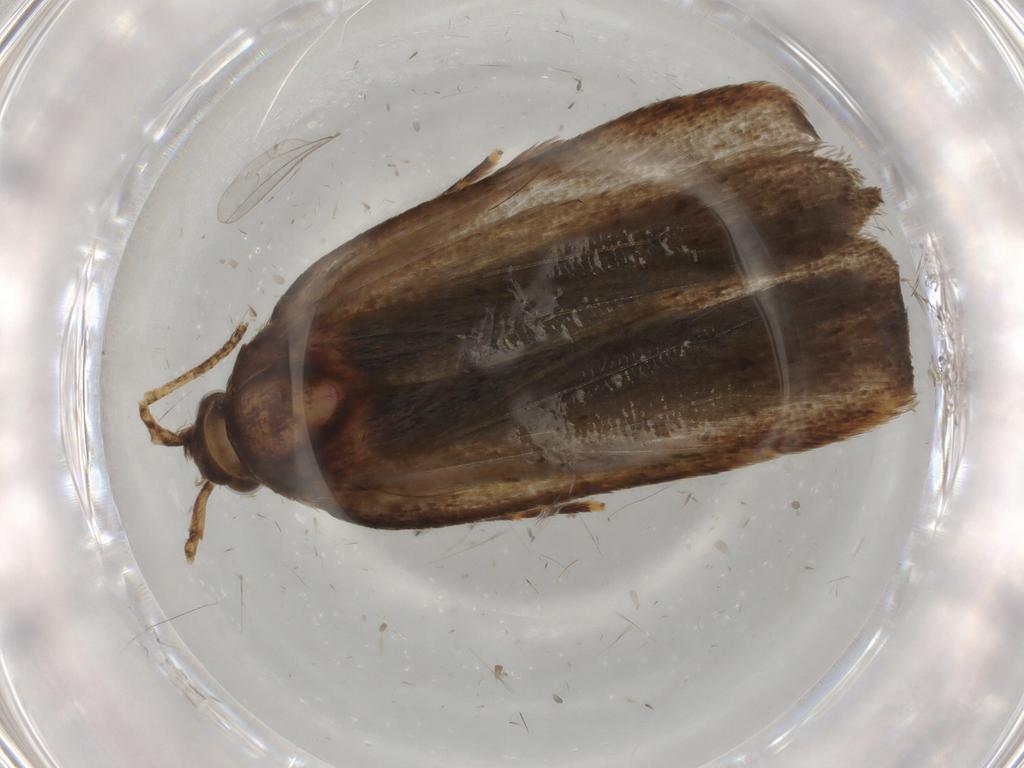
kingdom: Animalia
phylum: Arthropoda
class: Insecta
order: Lepidoptera
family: Autostichidae
